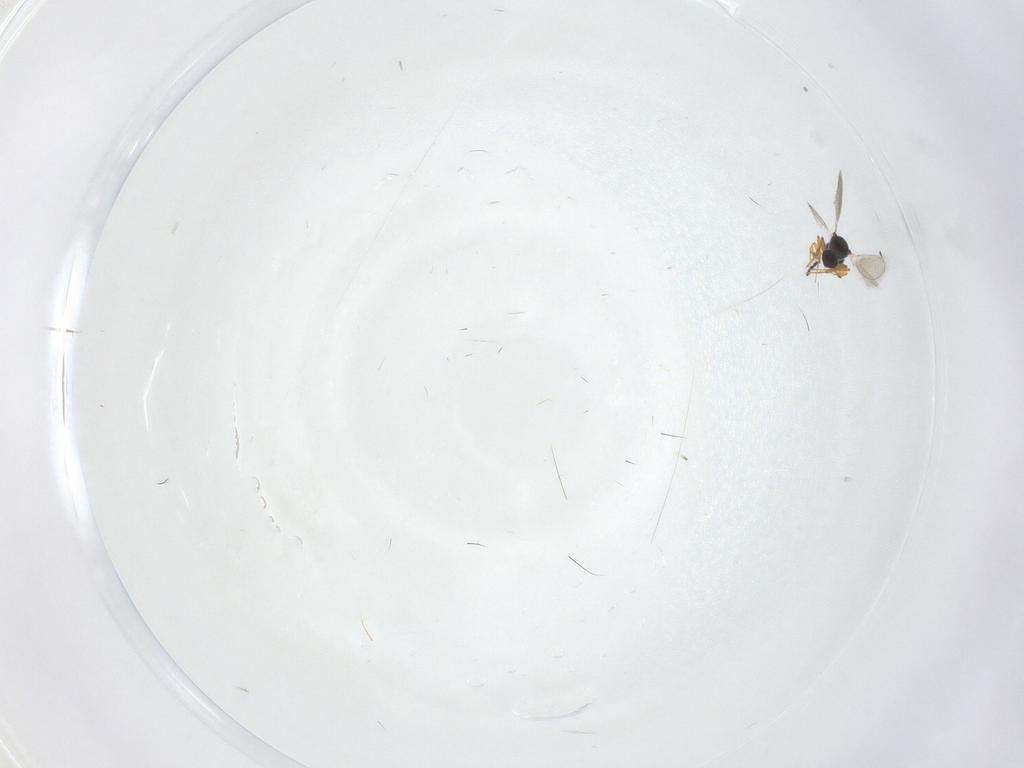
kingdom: Animalia
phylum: Arthropoda
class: Insecta
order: Hymenoptera
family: Platygastridae
